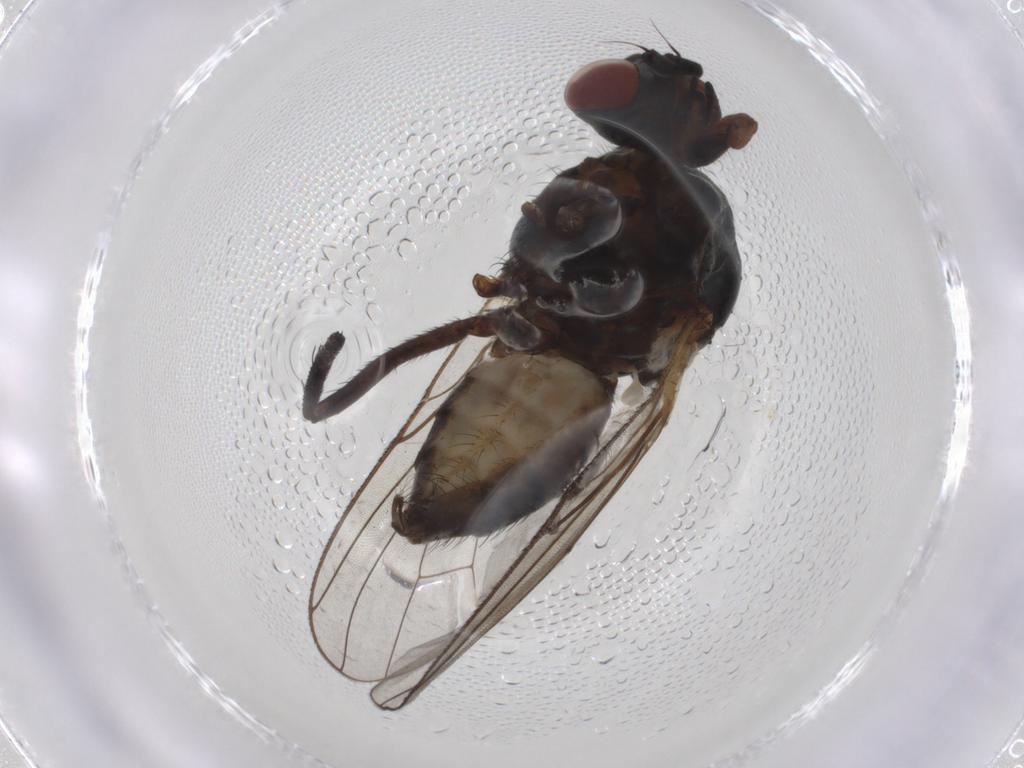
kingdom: Animalia
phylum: Arthropoda
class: Insecta
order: Diptera
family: Anthomyiidae
